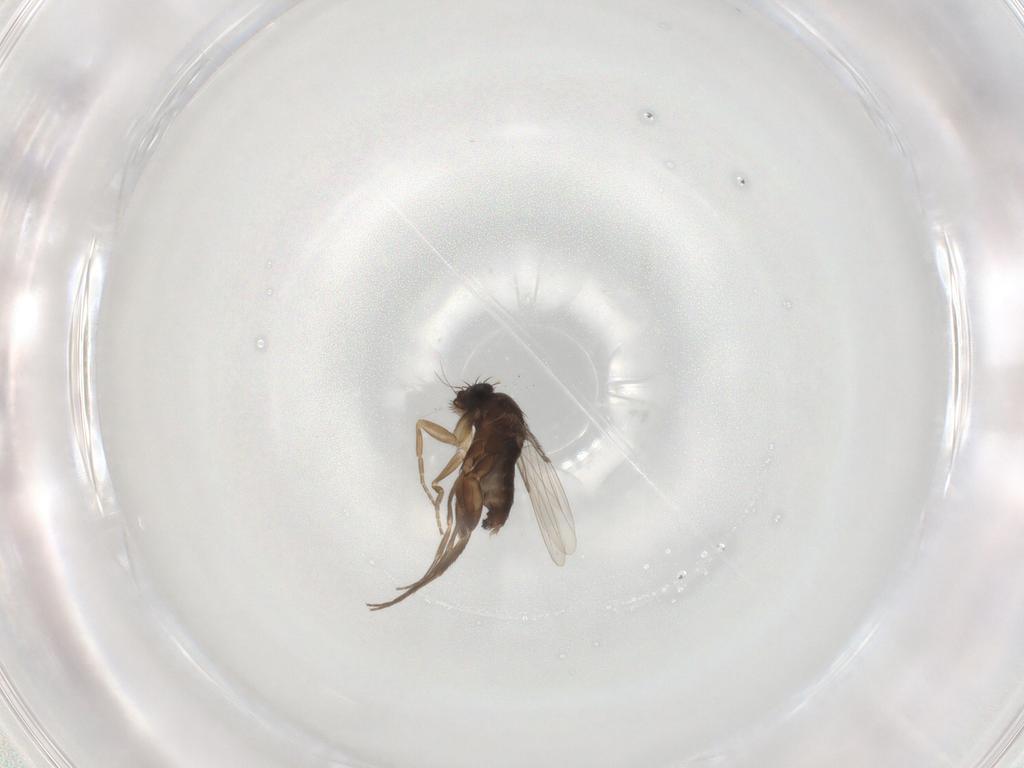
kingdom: Animalia
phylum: Arthropoda
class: Insecta
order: Diptera
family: Phoridae
